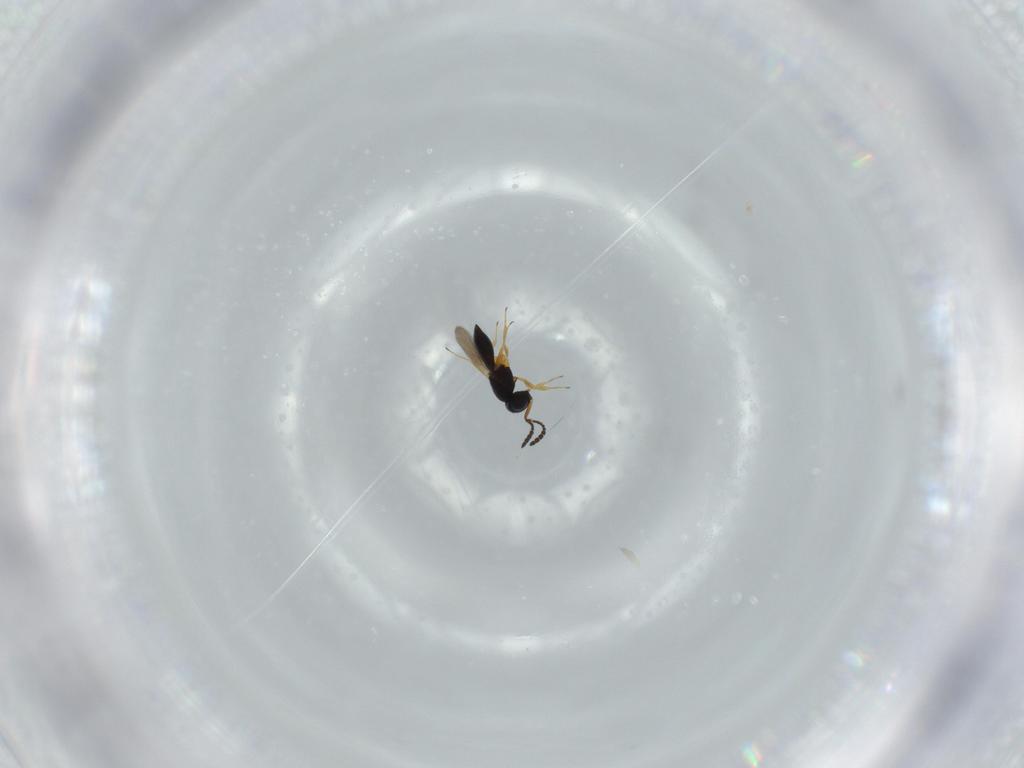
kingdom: Animalia
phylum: Arthropoda
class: Insecta
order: Hymenoptera
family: Scelionidae
